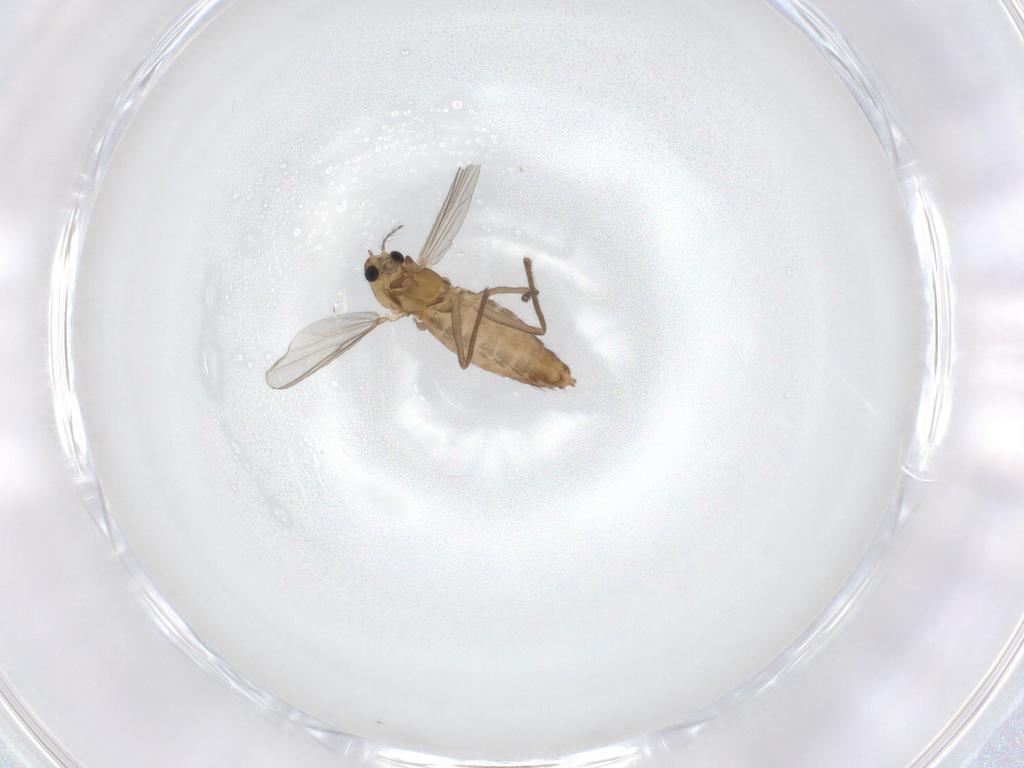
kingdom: Animalia
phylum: Arthropoda
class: Insecta
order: Diptera
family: Chironomidae
